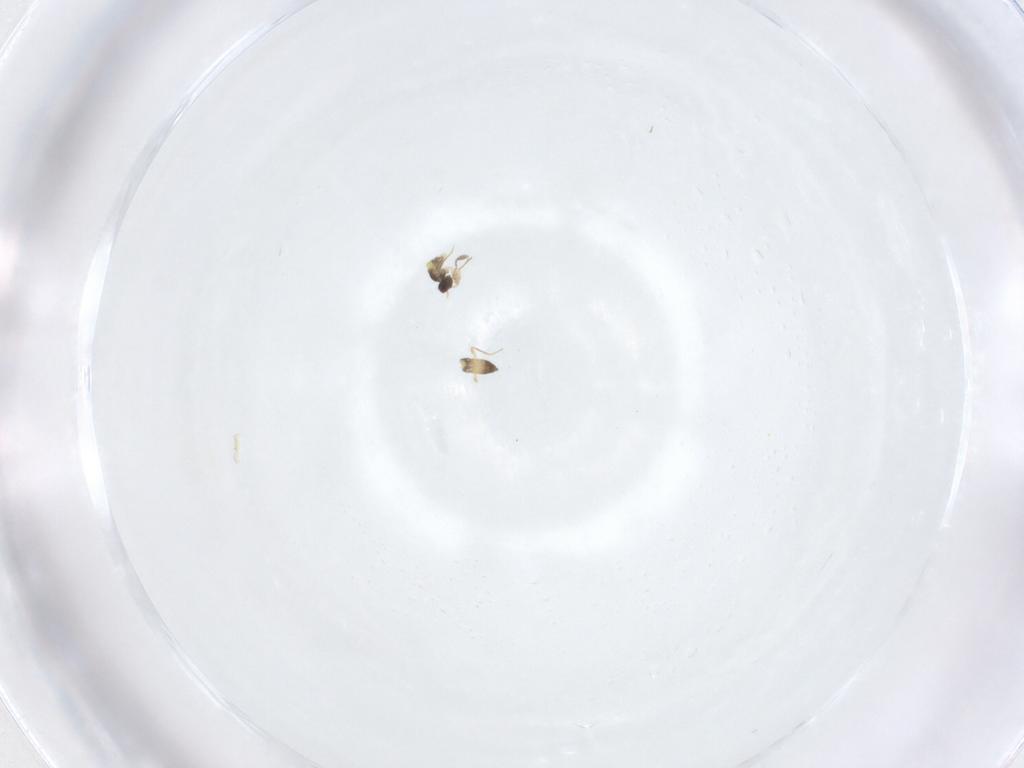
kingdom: Animalia
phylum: Arthropoda
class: Insecta
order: Hymenoptera
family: Mymaridae
